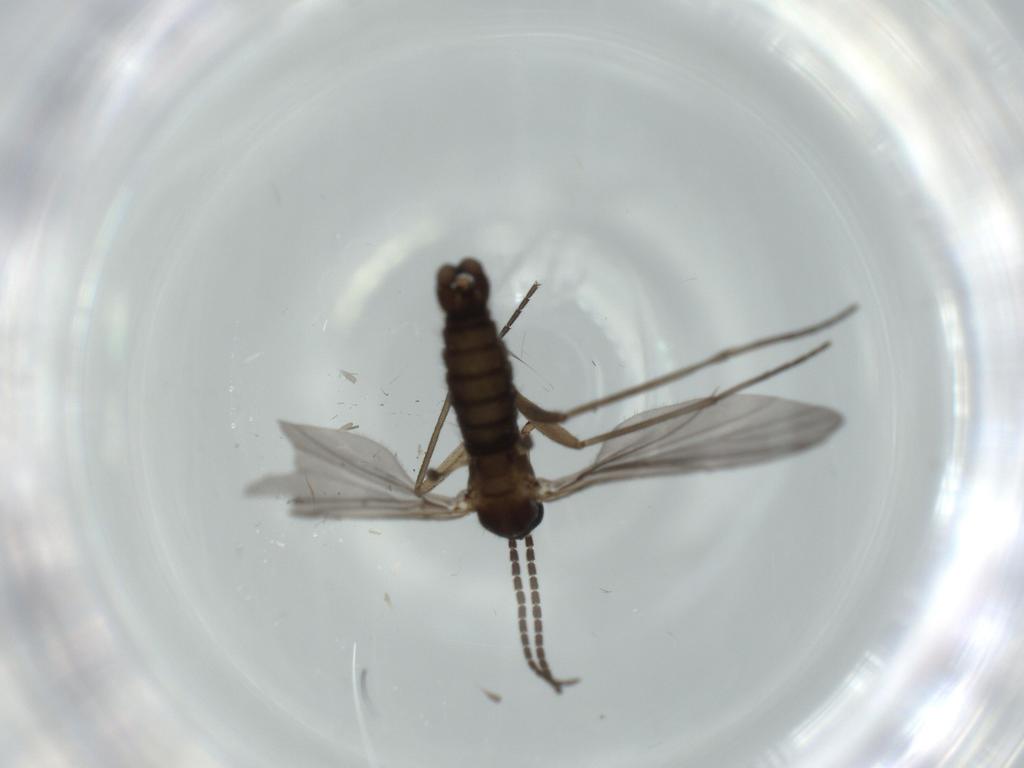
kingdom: Animalia
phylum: Arthropoda
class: Insecta
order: Diptera
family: Sciaridae
